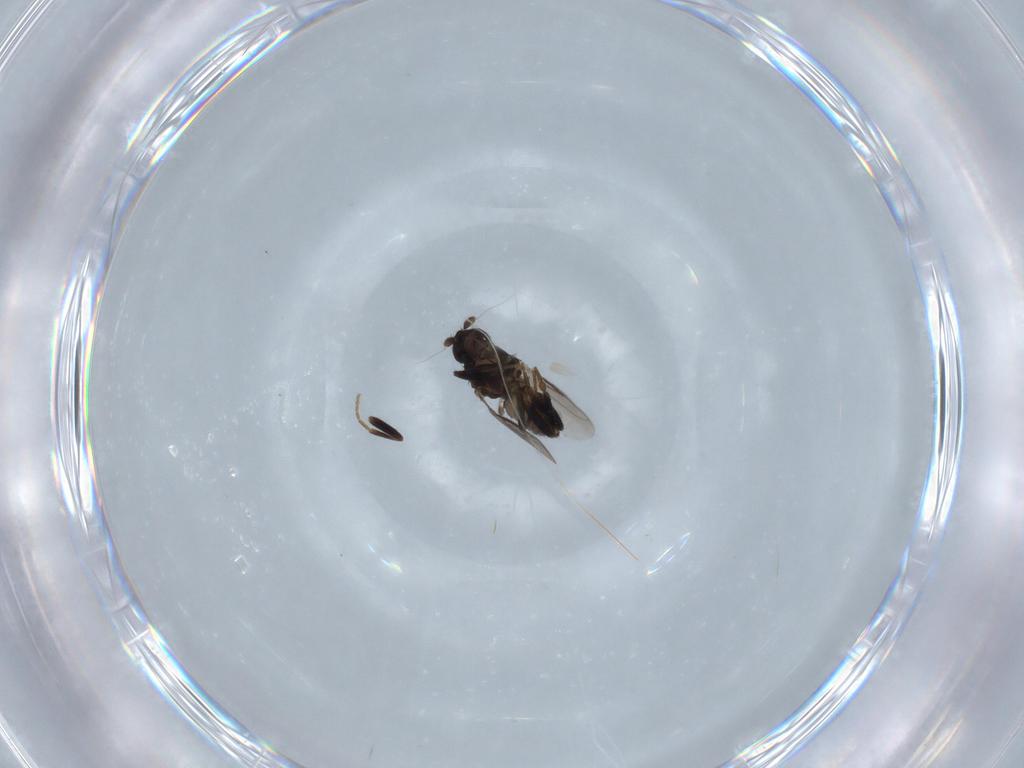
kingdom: Animalia
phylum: Arthropoda
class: Insecta
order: Diptera
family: Sphaeroceridae
